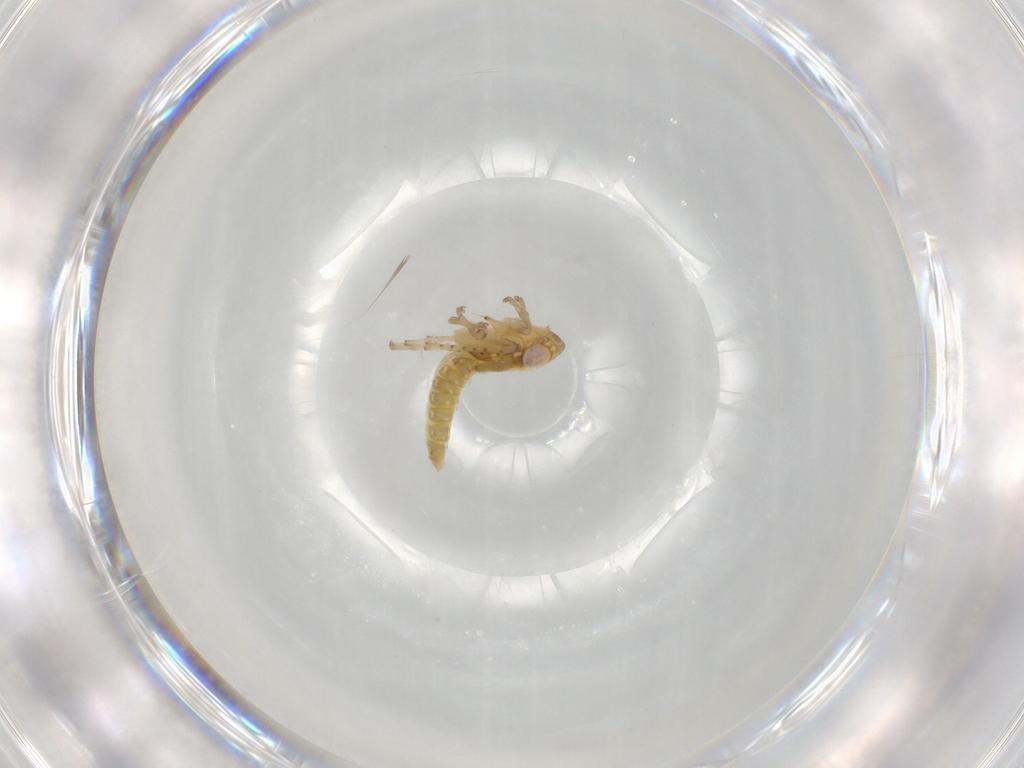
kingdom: Animalia
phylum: Arthropoda
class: Insecta
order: Hemiptera
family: Cicadellidae
